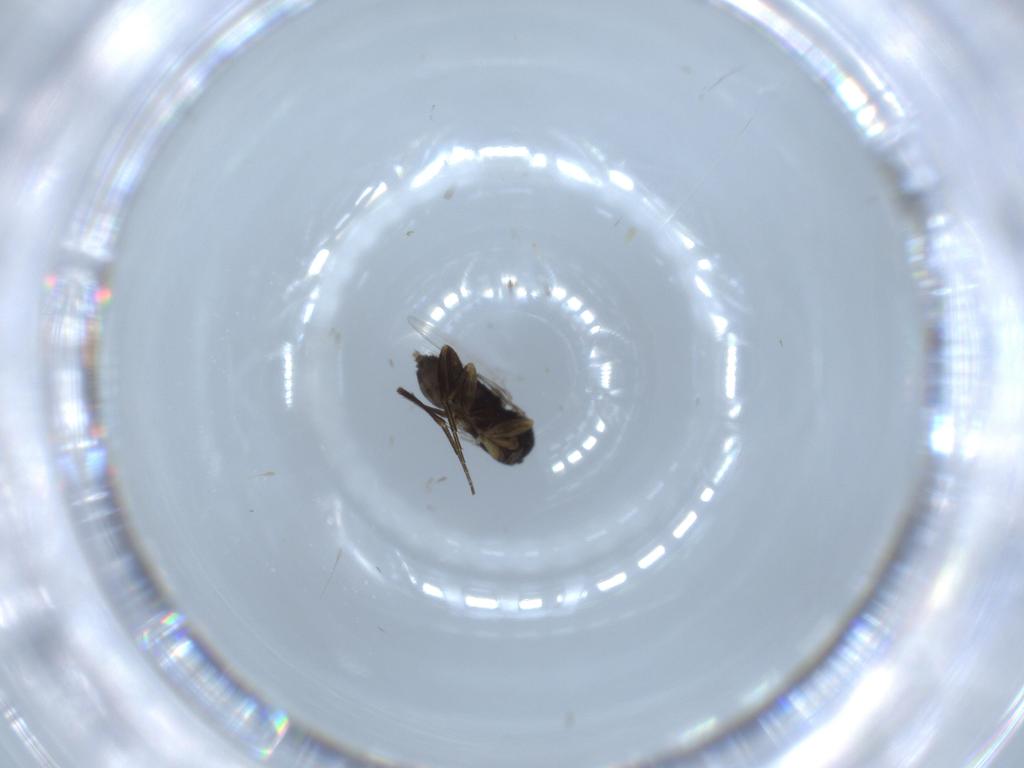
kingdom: Animalia
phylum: Arthropoda
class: Insecta
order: Diptera
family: Phoridae
